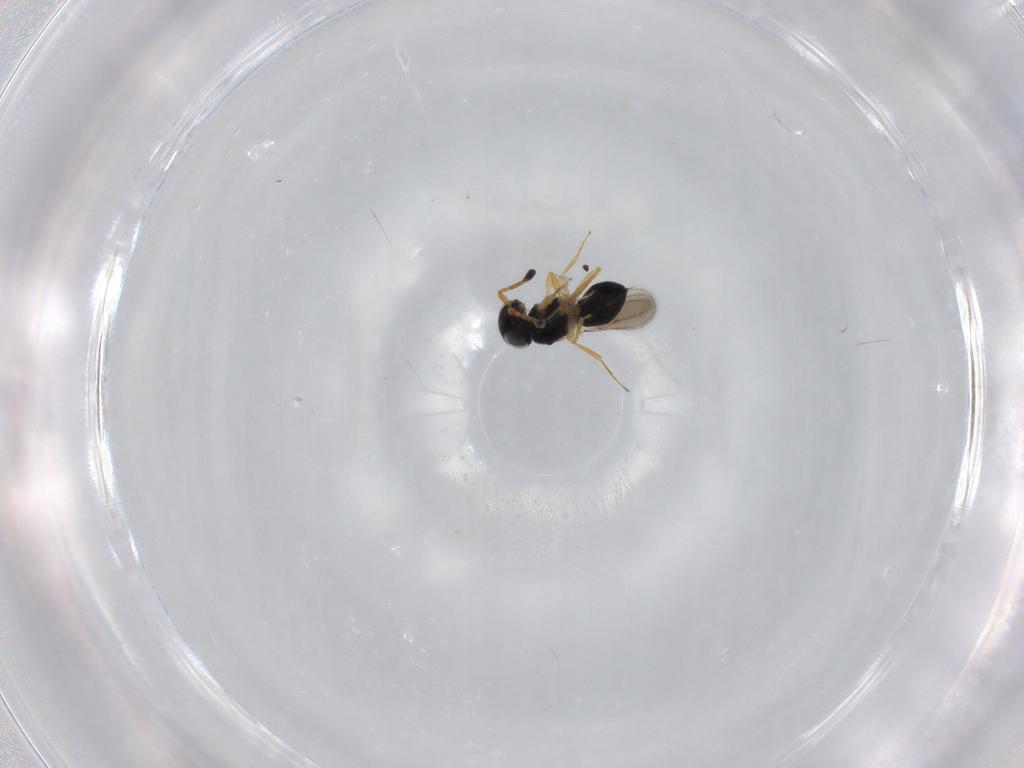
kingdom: Animalia
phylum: Arthropoda
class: Insecta
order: Hymenoptera
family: Scelionidae
